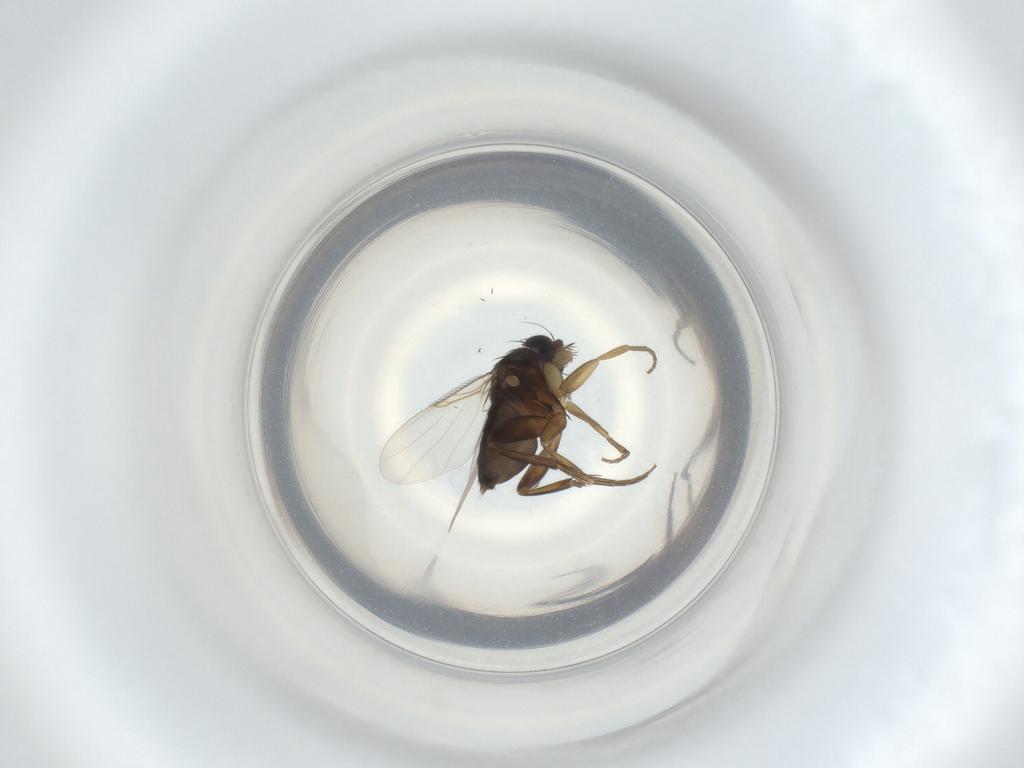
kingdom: Animalia
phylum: Arthropoda
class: Insecta
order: Diptera
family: Phoridae
